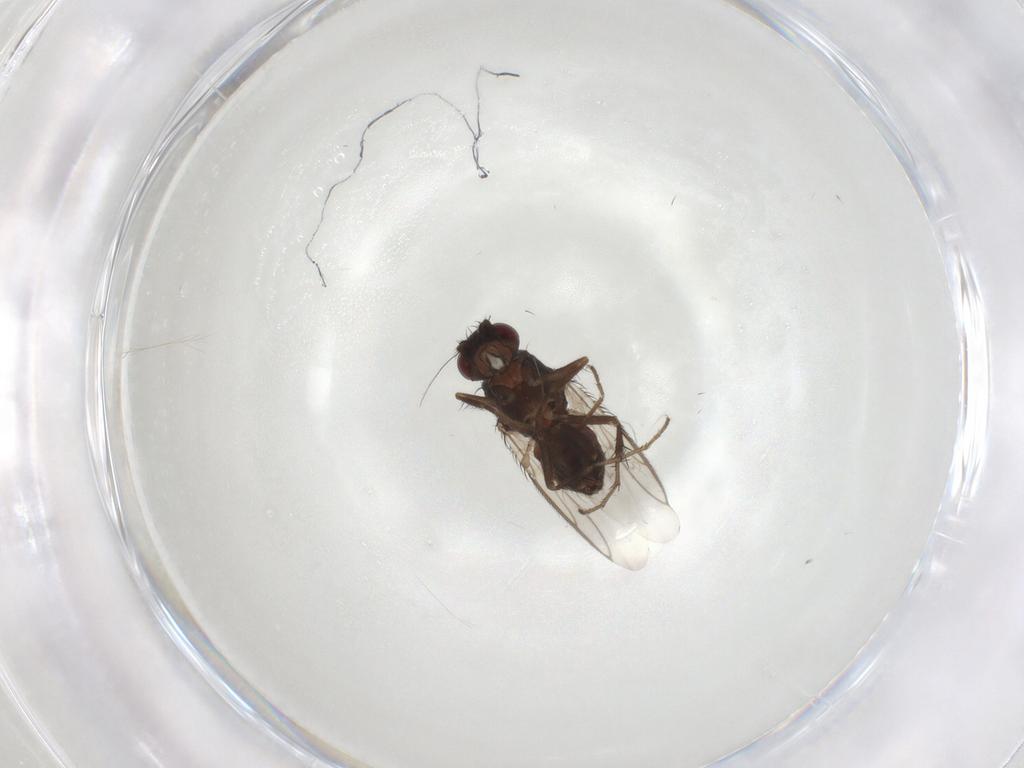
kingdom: Animalia
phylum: Arthropoda
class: Insecta
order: Diptera
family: Sphaeroceridae
